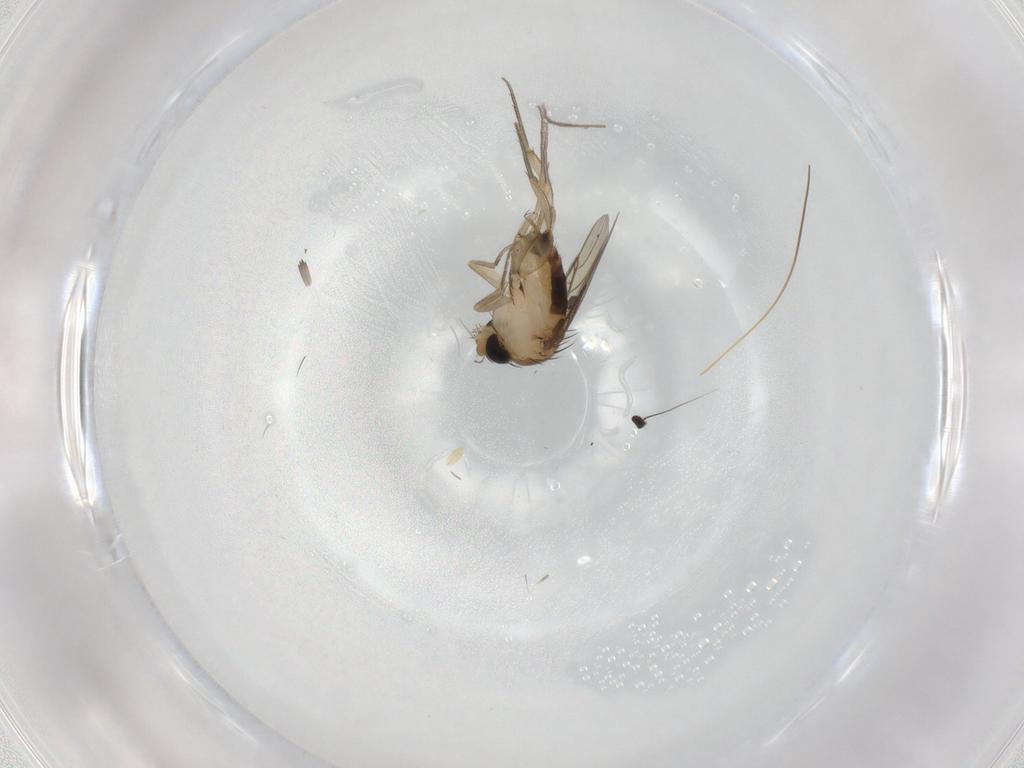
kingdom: Animalia
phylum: Arthropoda
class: Insecta
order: Diptera
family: Phoridae
